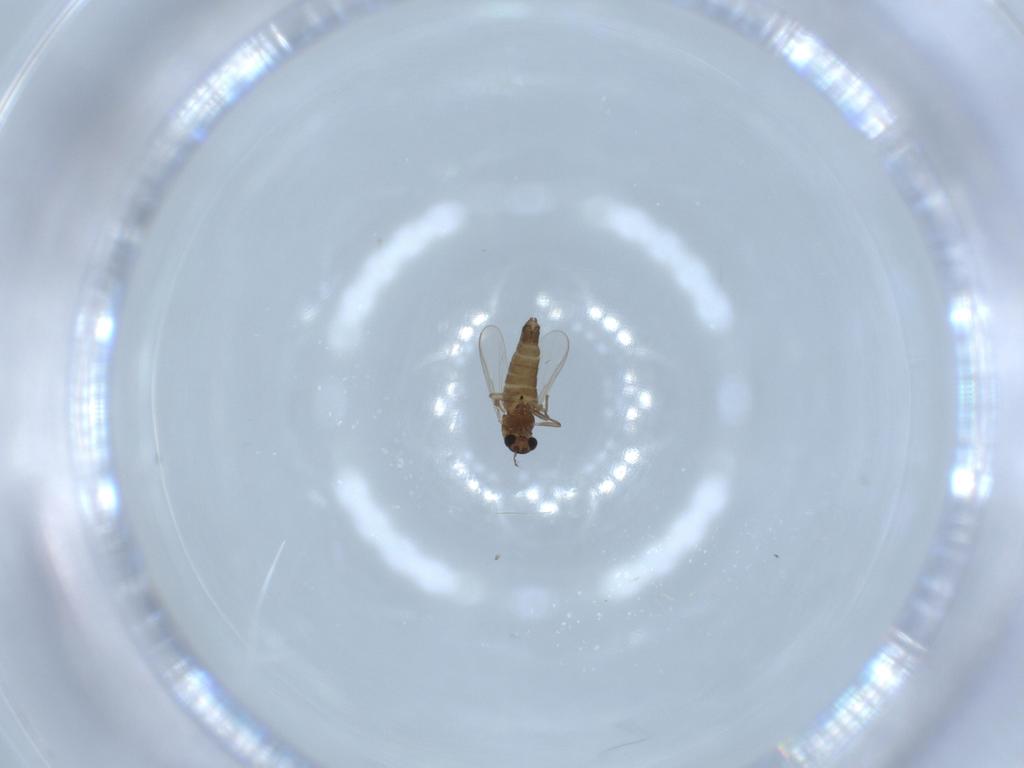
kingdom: Animalia
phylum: Arthropoda
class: Insecta
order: Diptera
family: Chironomidae
